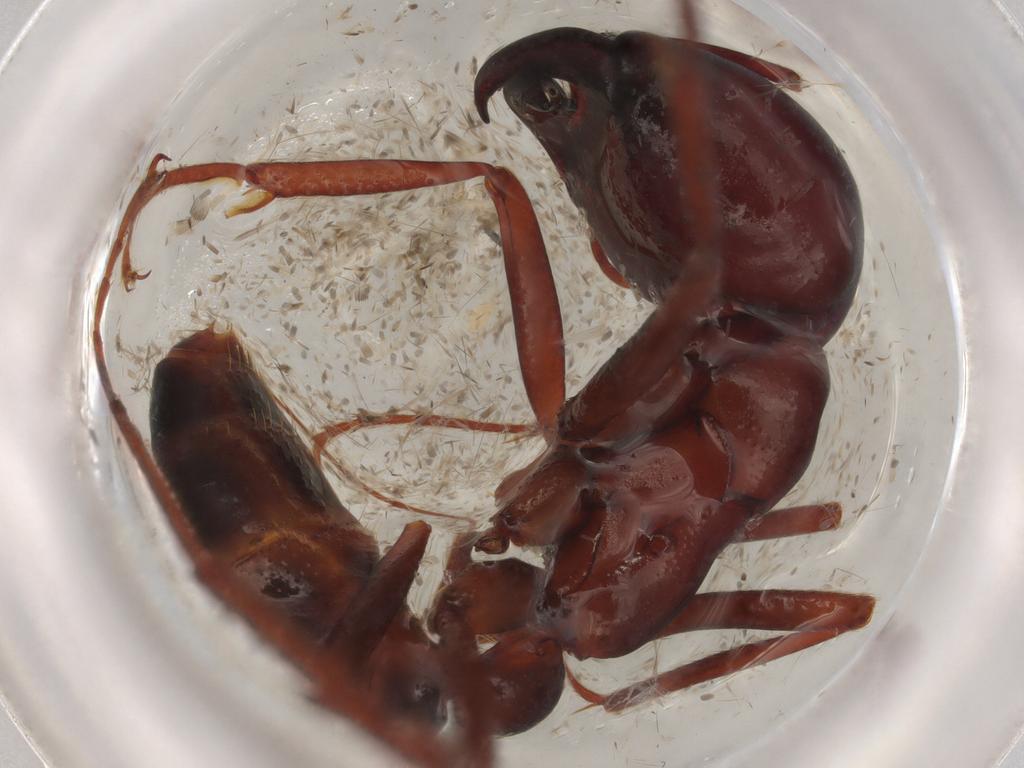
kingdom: Animalia
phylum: Arthropoda
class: Insecta
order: Hymenoptera
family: Formicidae
